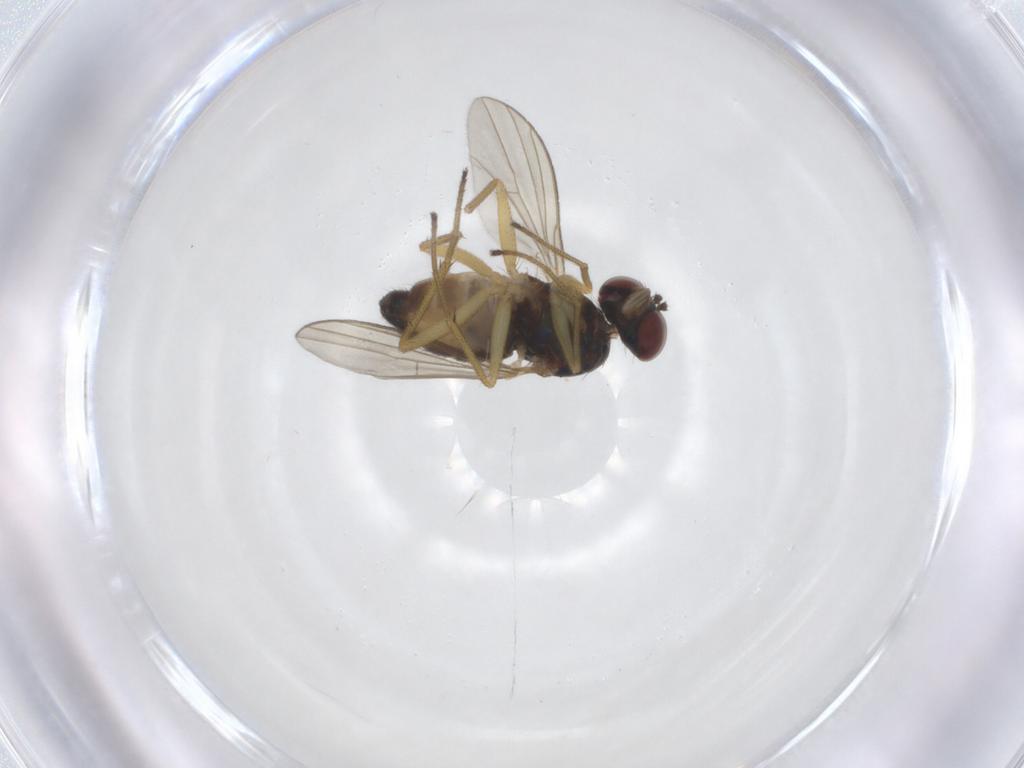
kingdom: Animalia
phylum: Arthropoda
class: Insecta
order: Diptera
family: Dolichopodidae
